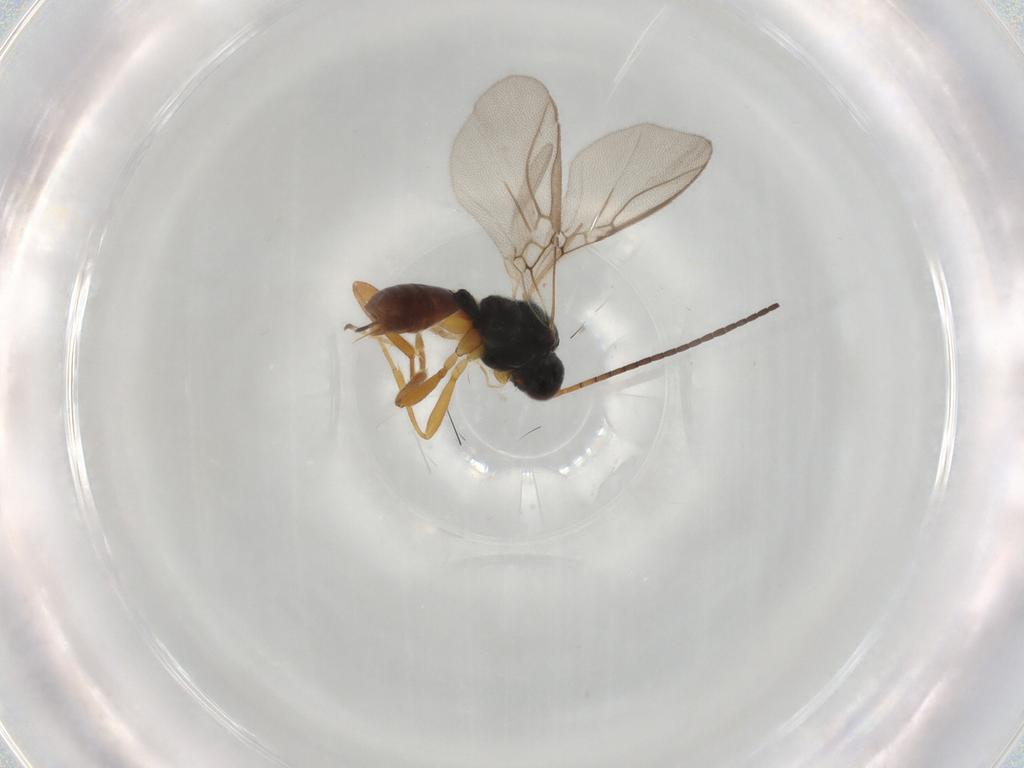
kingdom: Animalia
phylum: Arthropoda
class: Insecta
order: Hymenoptera
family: Braconidae
